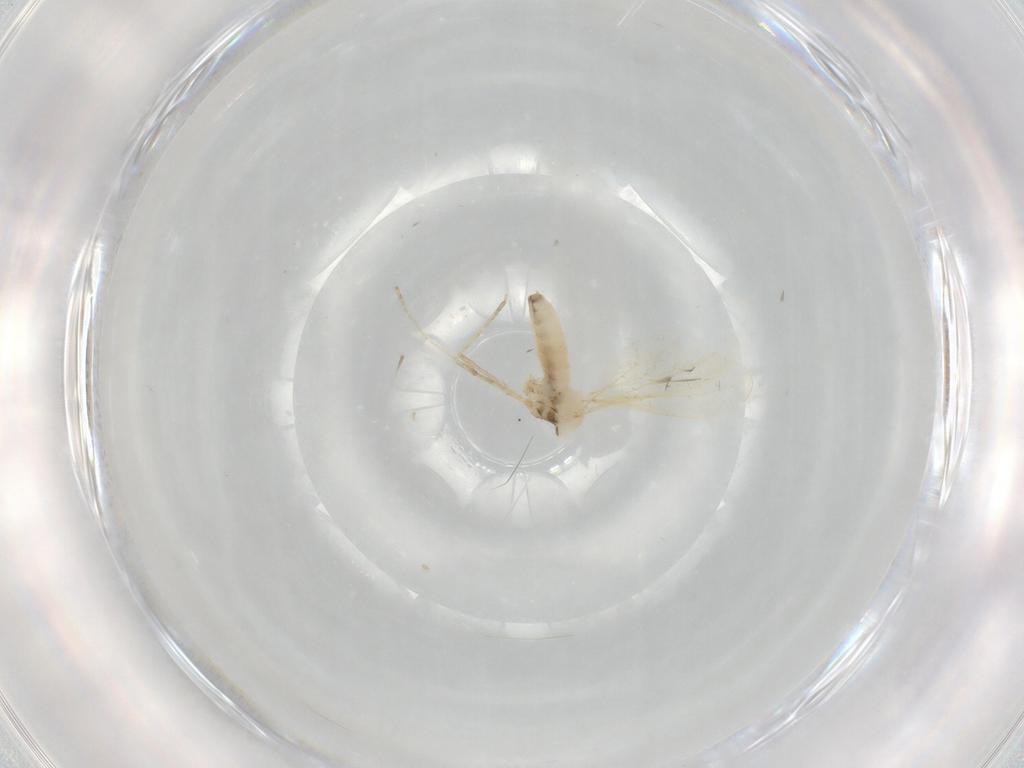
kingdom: Animalia
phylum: Arthropoda
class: Insecta
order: Diptera
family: Cecidomyiidae
